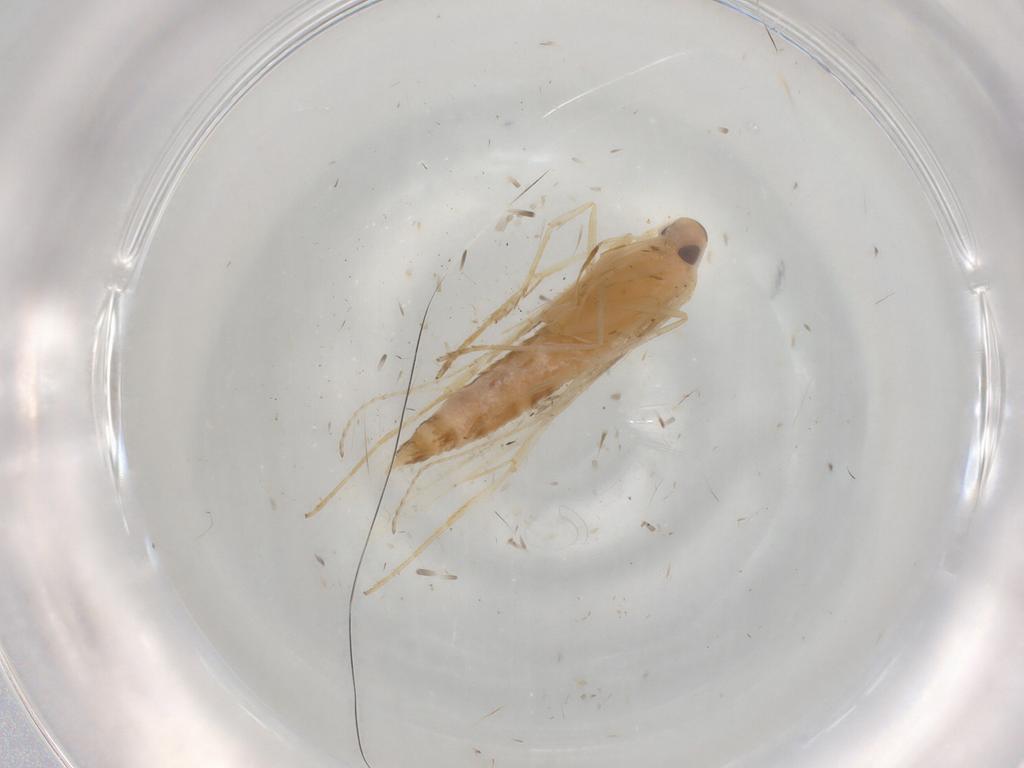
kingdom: Animalia
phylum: Arthropoda
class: Insecta
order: Lepidoptera
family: Cosmopterigidae
